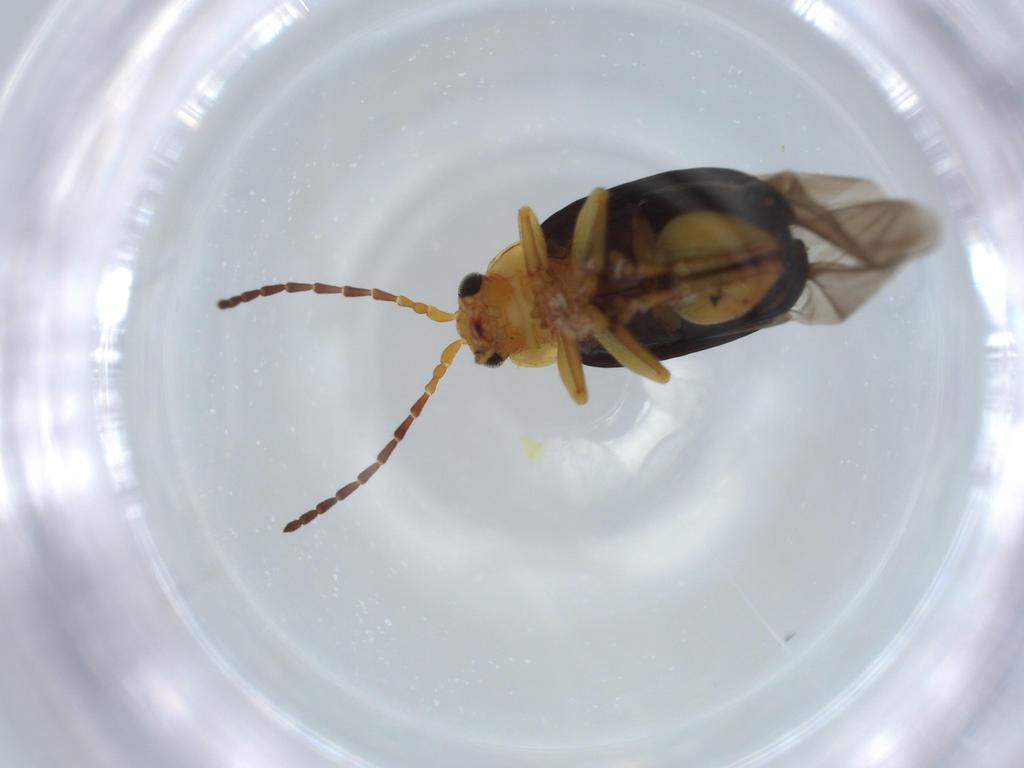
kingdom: Animalia
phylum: Arthropoda
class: Insecta
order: Coleoptera
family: Chrysomelidae
